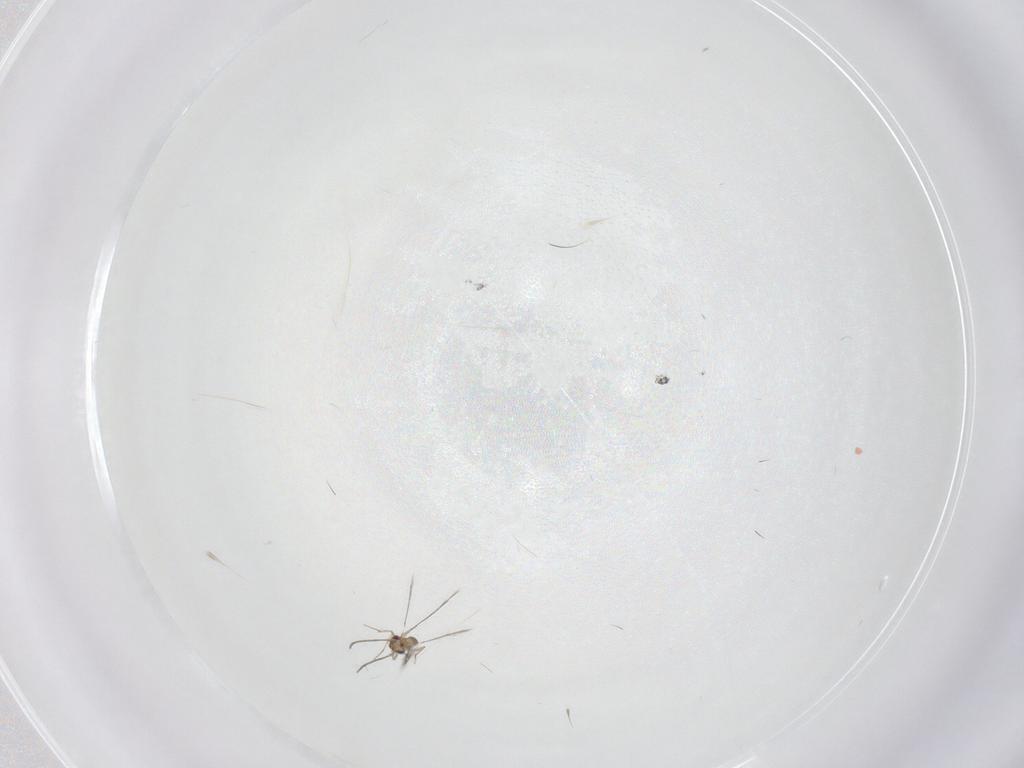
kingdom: Animalia
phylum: Arthropoda
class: Insecta
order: Hymenoptera
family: Mymaridae
